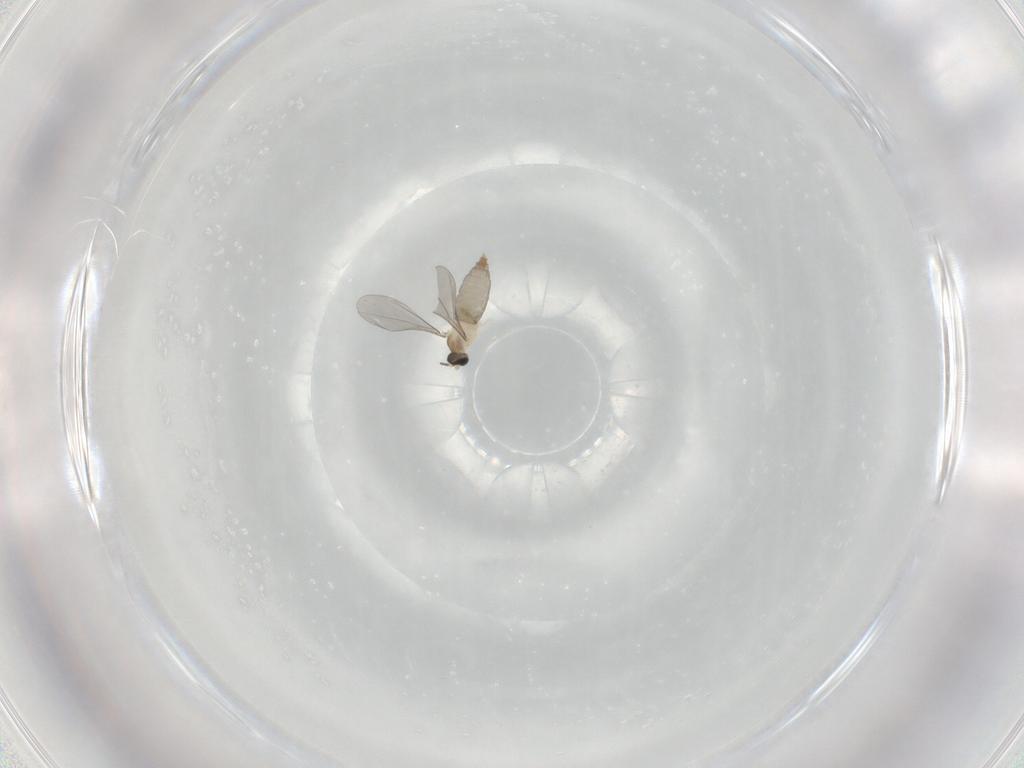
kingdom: Animalia
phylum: Arthropoda
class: Insecta
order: Diptera
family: Cecidomyiidae
